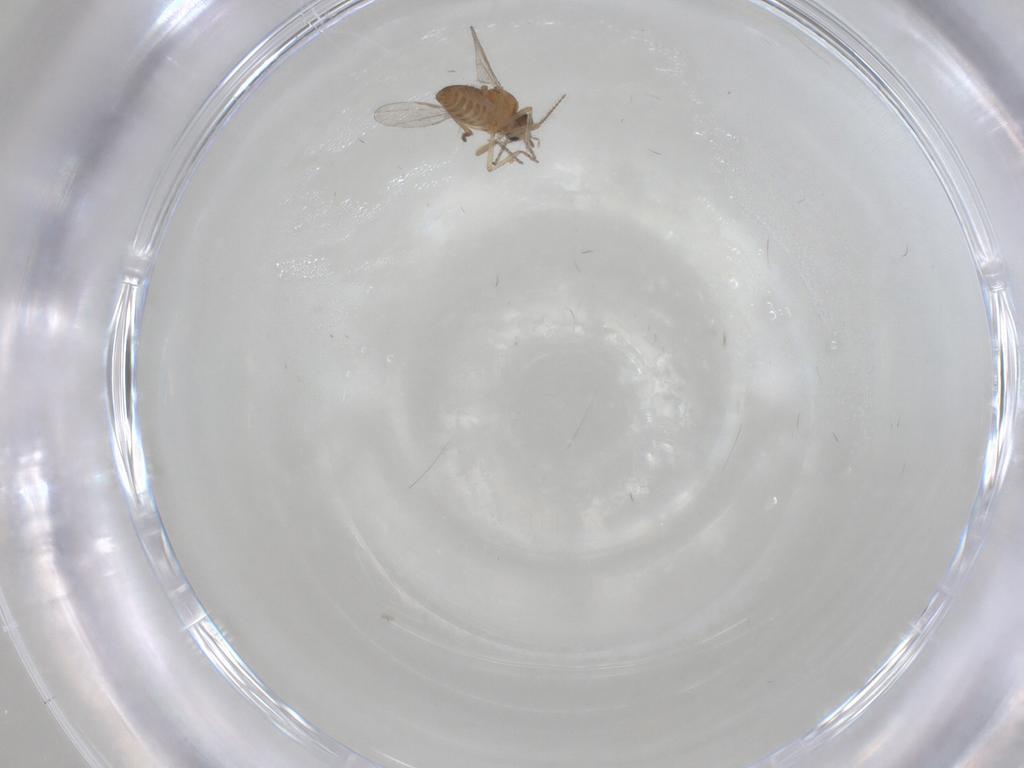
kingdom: Animalia
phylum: Arthropoda
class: Insecta
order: Diptera
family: Ceratopogonidae
